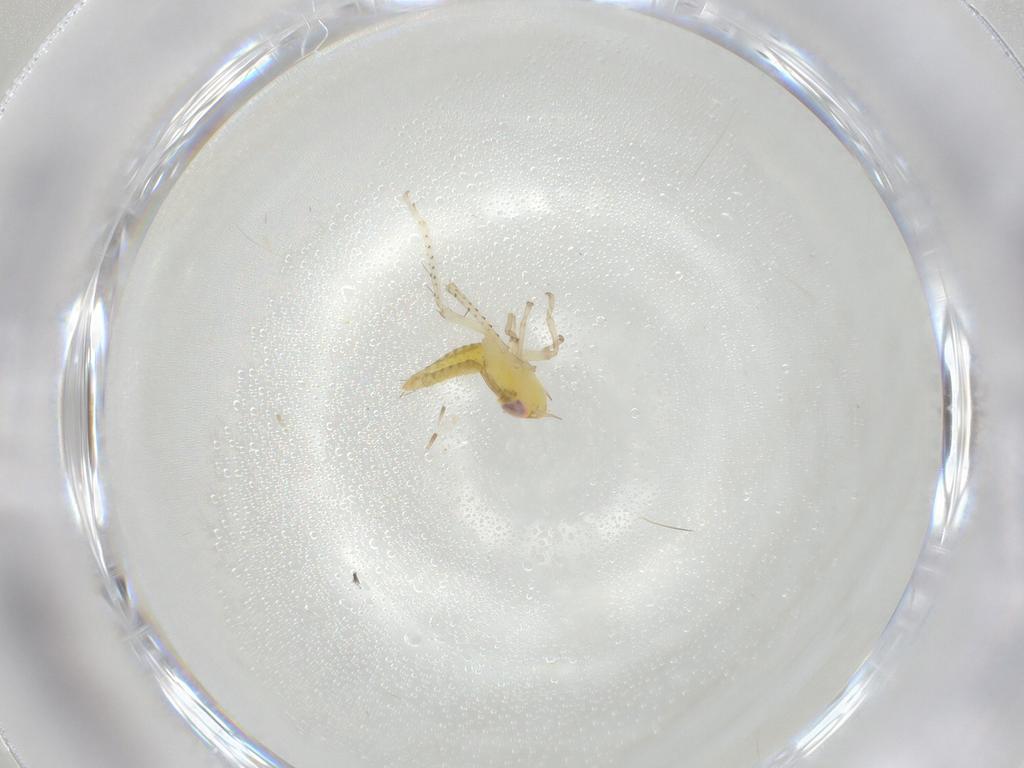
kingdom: Animalia
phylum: Arthropoda
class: Insecta
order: Hemiptera
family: Cicadellidae
